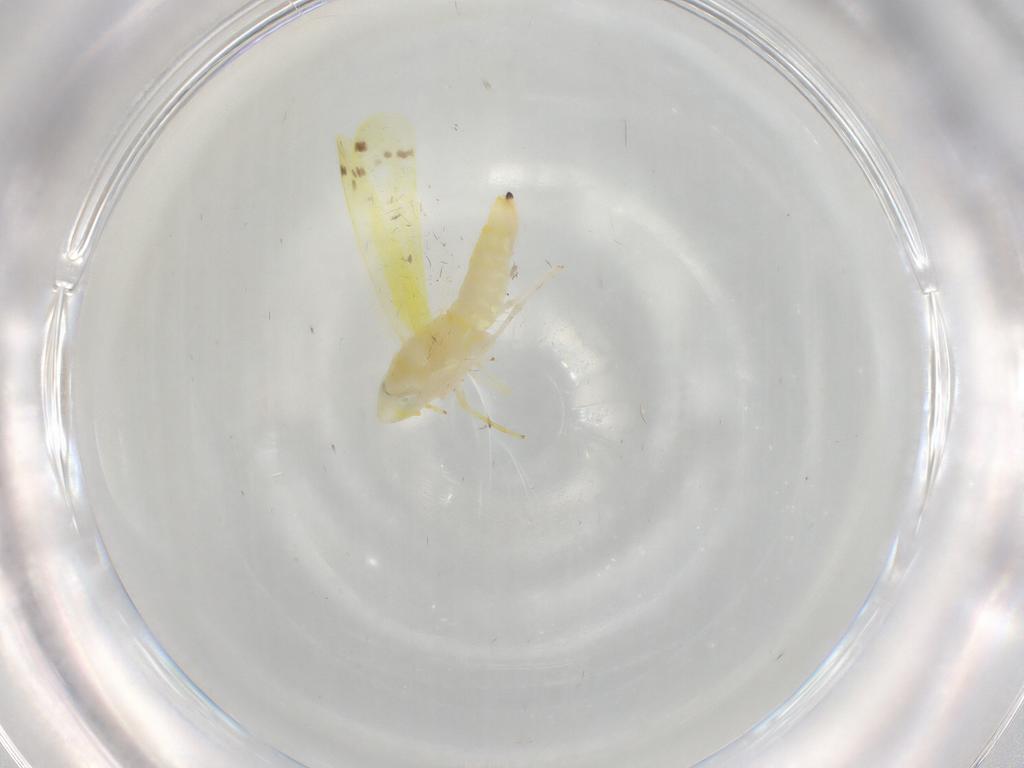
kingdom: Animalia
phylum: Arthropoda
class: Insecta
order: Hemiptera
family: Cicadellidae
